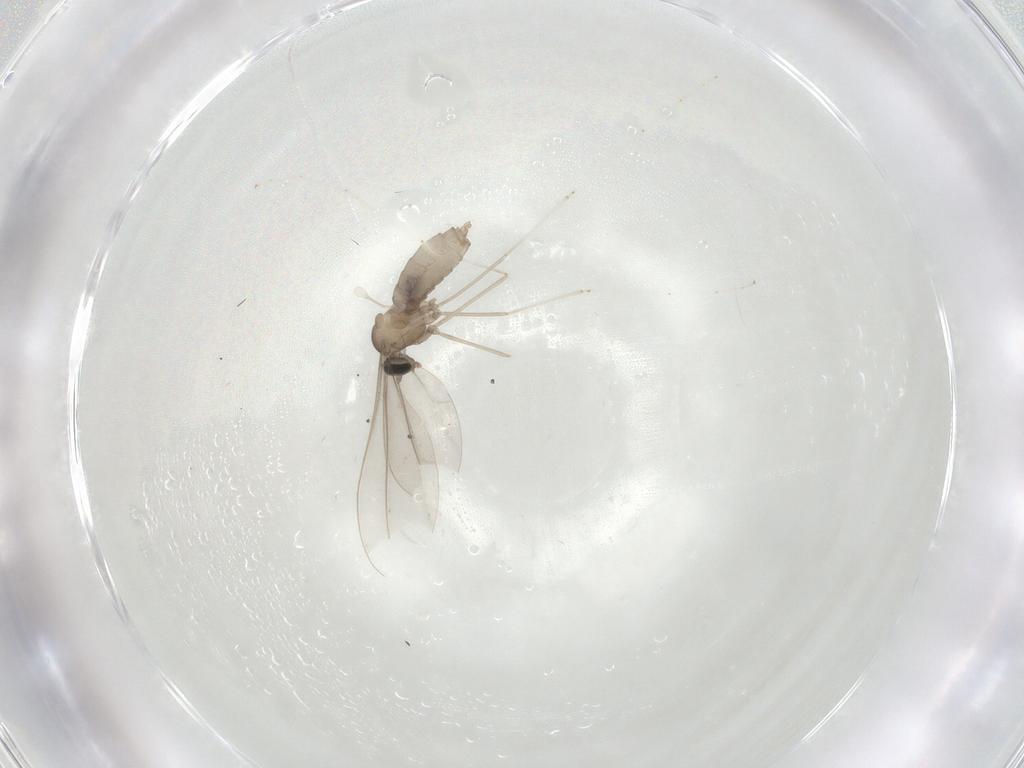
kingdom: Animalia
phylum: Arthropoda
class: Insecta
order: Diptera
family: Cecidomyiidae
